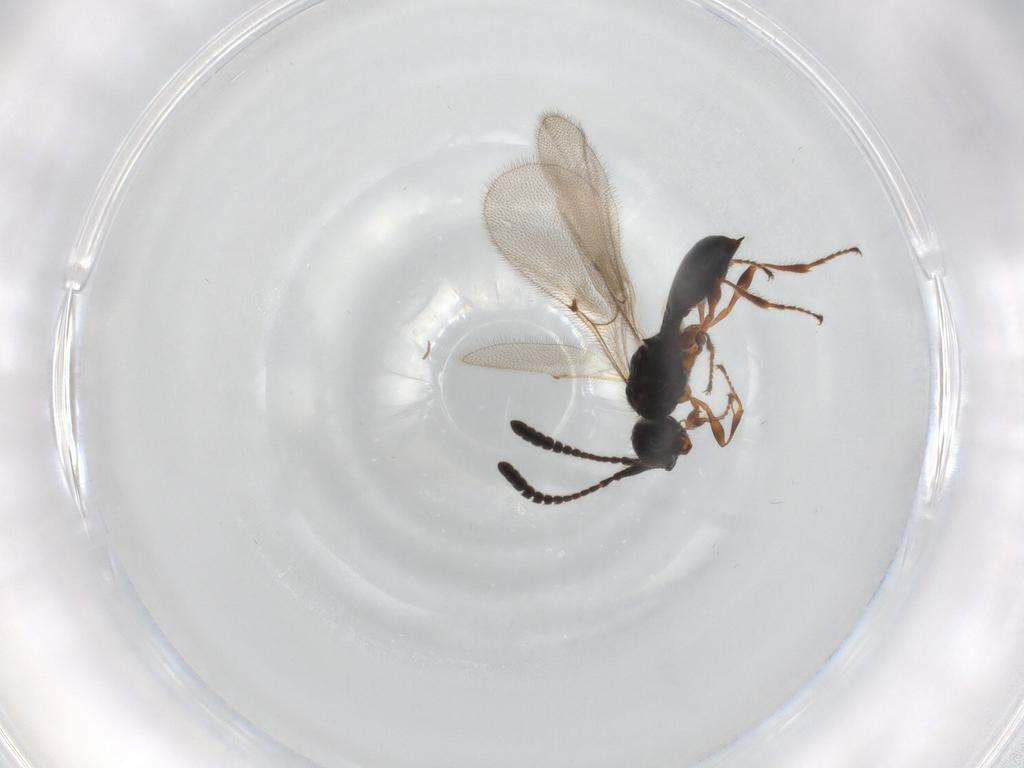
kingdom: Animalia
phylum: Arthropoda
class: Insecta
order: Hymenoptera
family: Diapriidae
